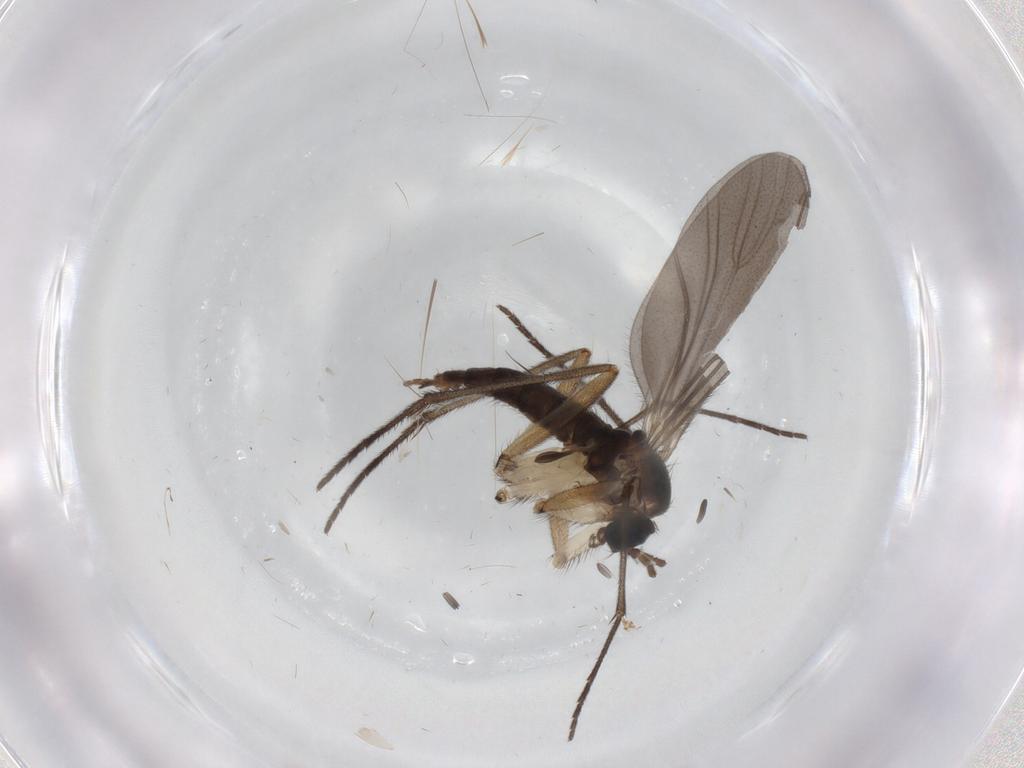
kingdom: Animalia
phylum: Arthropoda
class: Insecta
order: Diptera
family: Sciaridae
